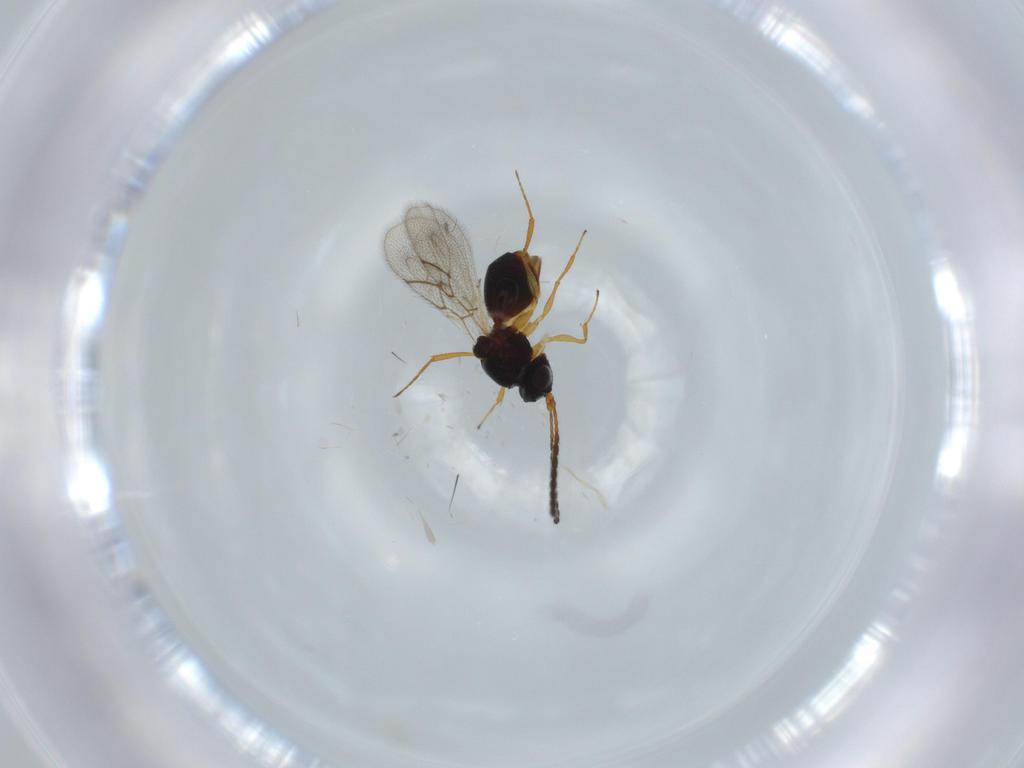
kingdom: Animalia
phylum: Arthropoda
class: Insecta
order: Hymenoptera
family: Figitidae
